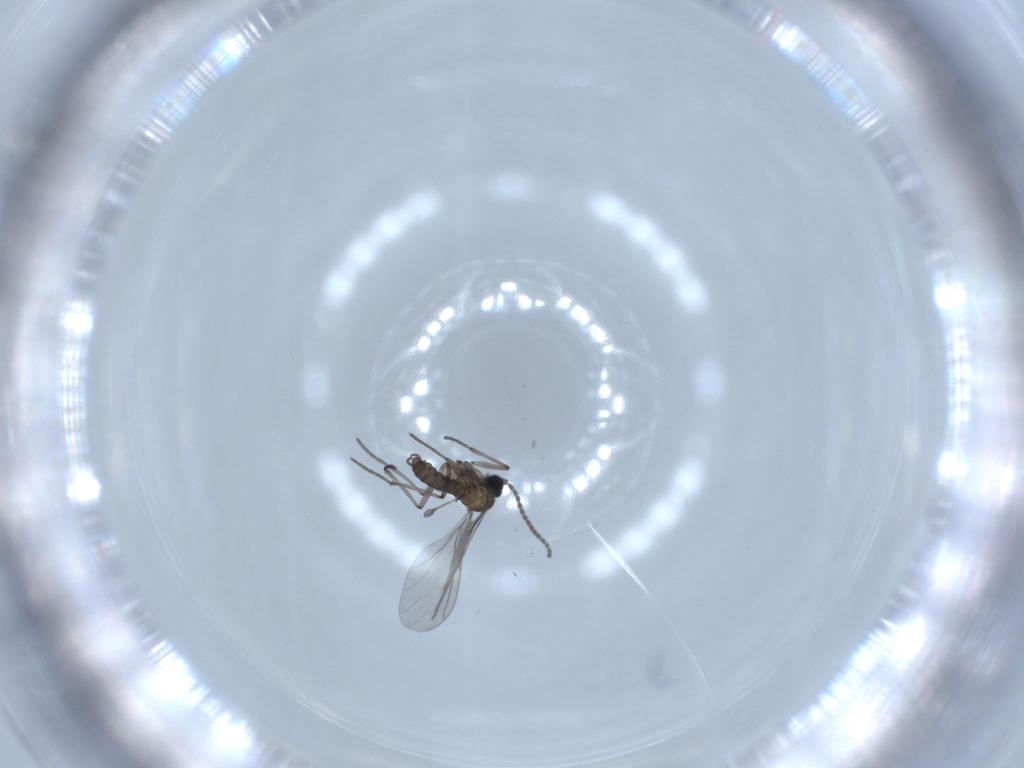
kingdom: Animalia
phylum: Arthropoda
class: Insecta
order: Diptera
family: Sciaridae
